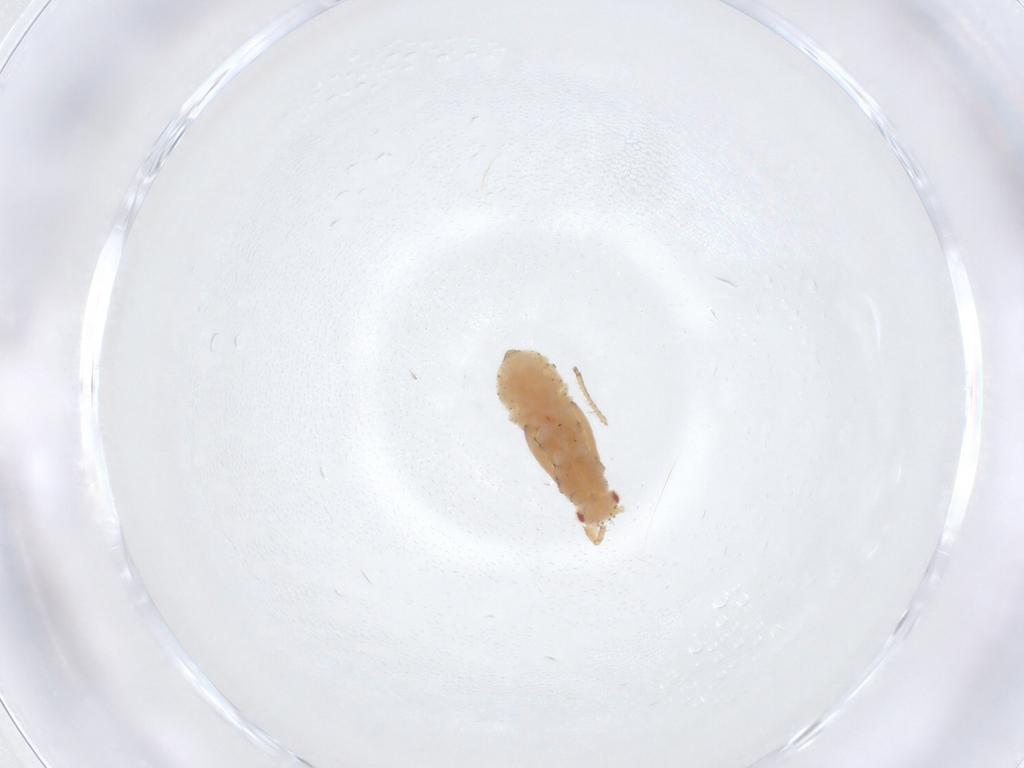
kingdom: Animalia
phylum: Arthropoda
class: Insecta
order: Hemiptera
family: Aphididae
